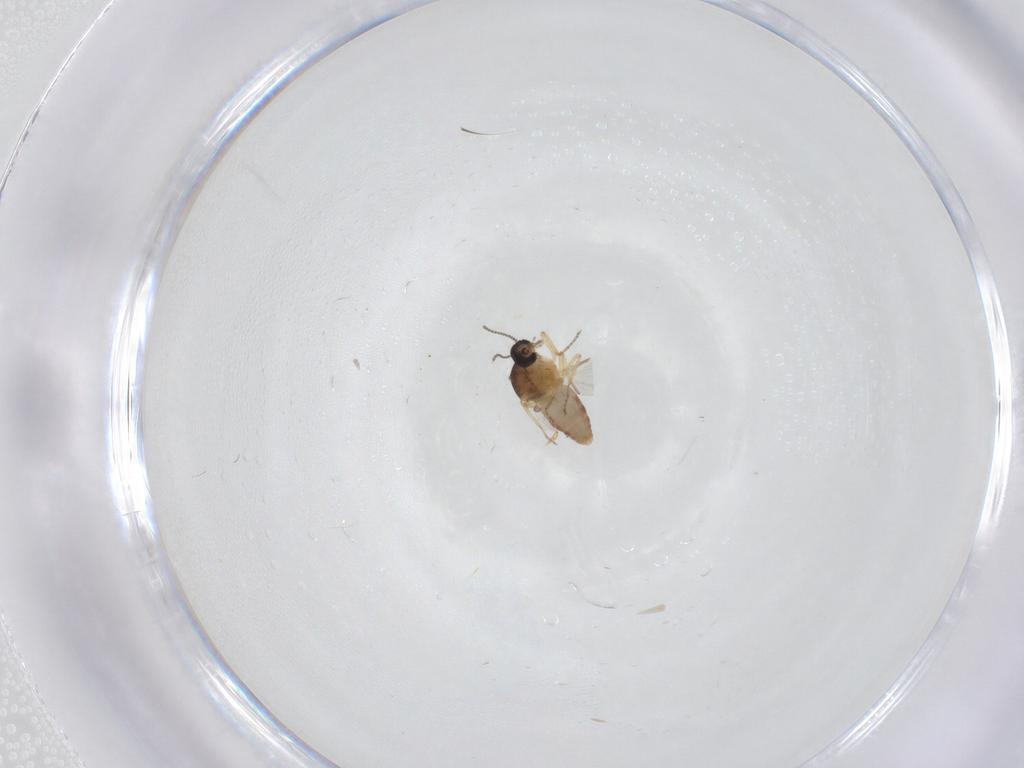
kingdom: Animalia
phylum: Arthropoda
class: Insecta
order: Diptera
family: Ceratopogonidae
